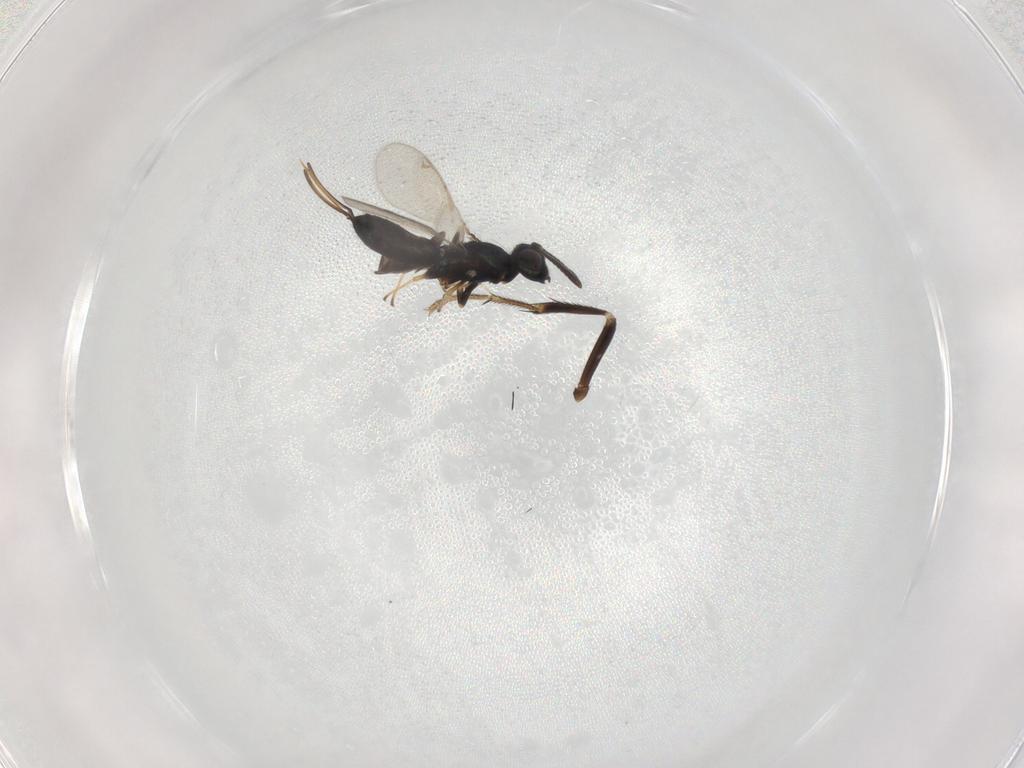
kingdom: Animalia
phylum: Arthropoda
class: Insecta
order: Hymenoptera
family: Eupelmidae
